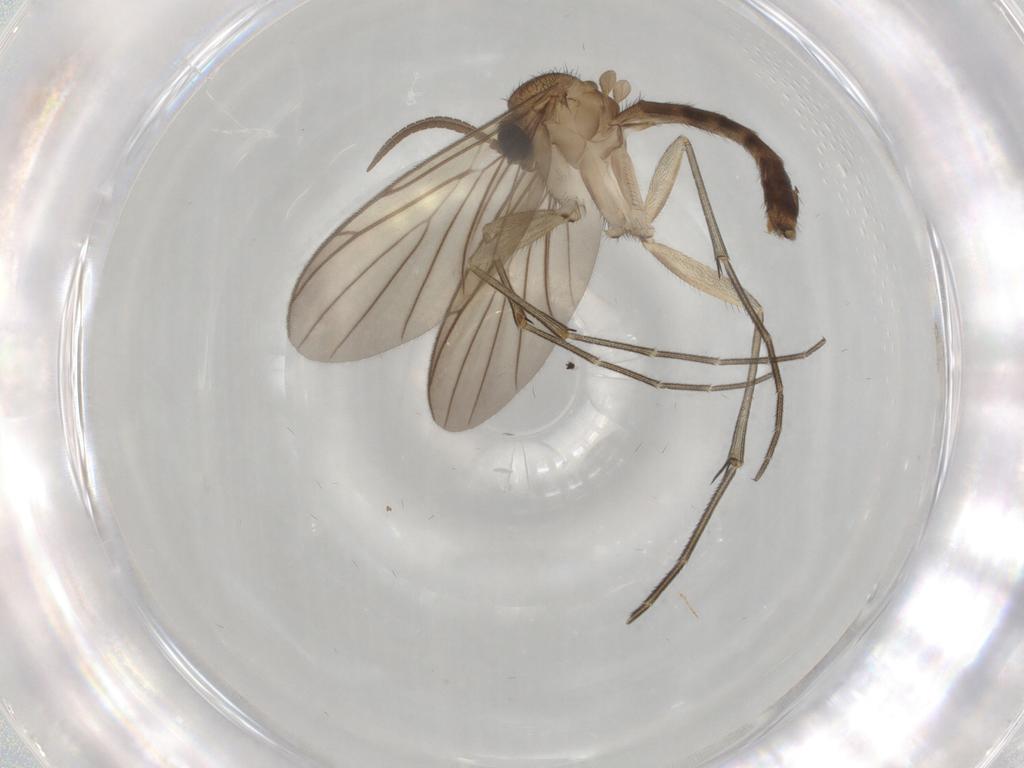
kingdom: Animalia
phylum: Arthropoda
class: Insecta
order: Diptera
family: Sciaridae
